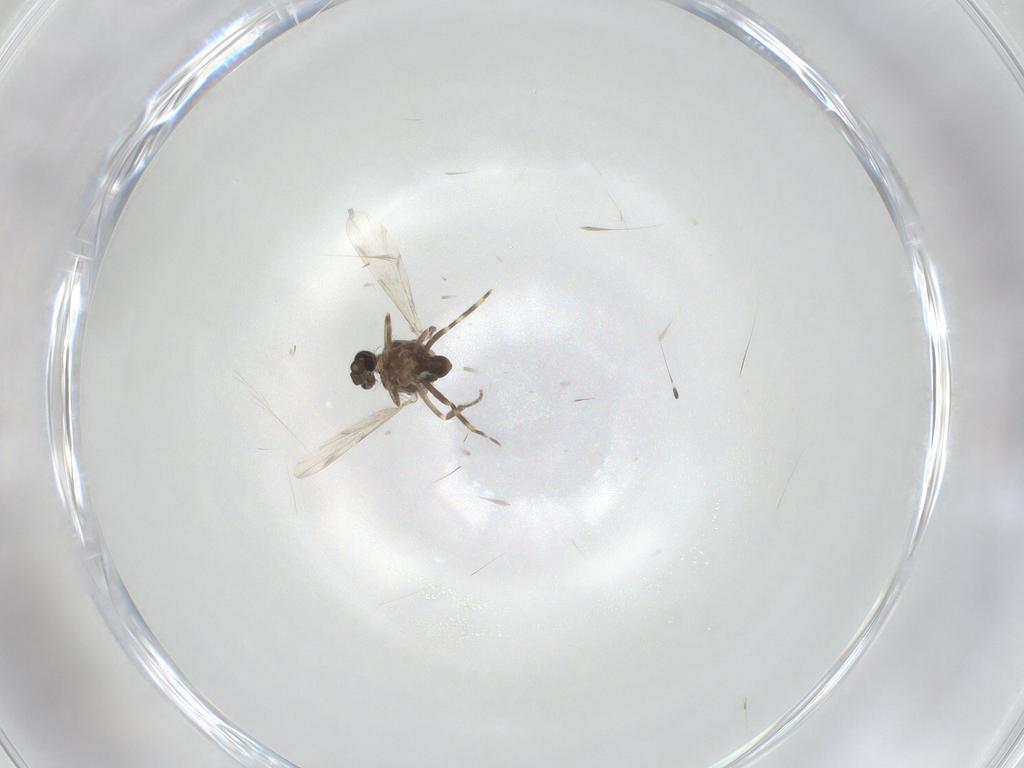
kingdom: Animalia
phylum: Arthropoda
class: Insecta
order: Diptera
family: Ceratopogonidae
